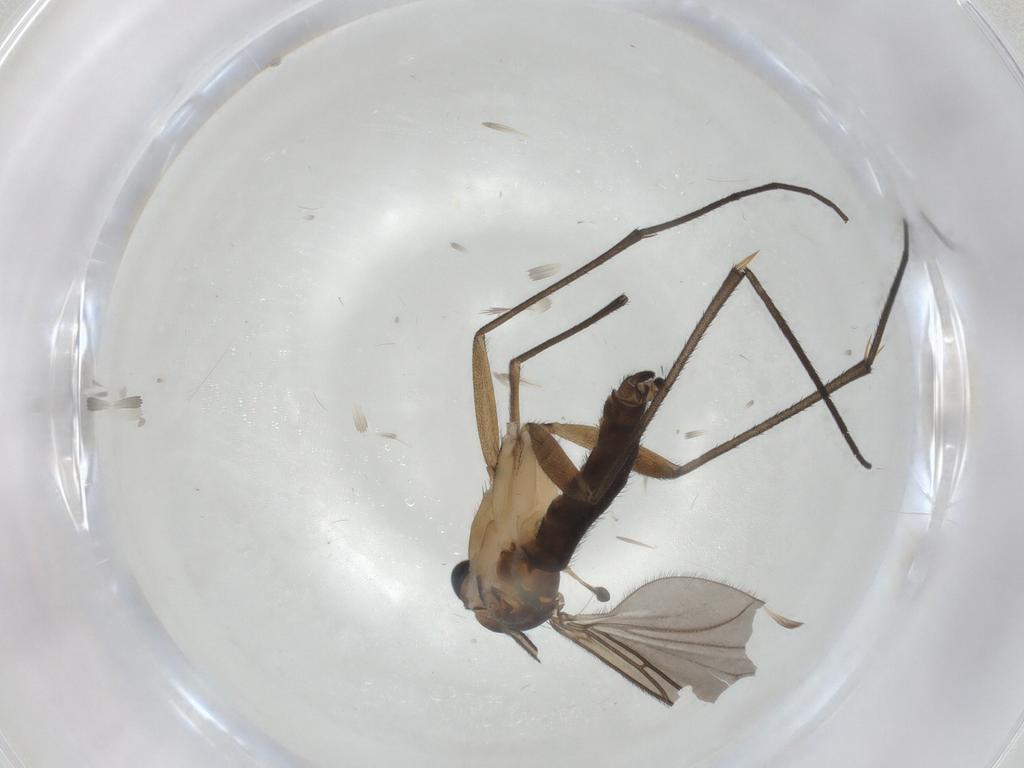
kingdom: Animalia
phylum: Arthropoda
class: Insecta
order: Diptera
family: Sciaridae
